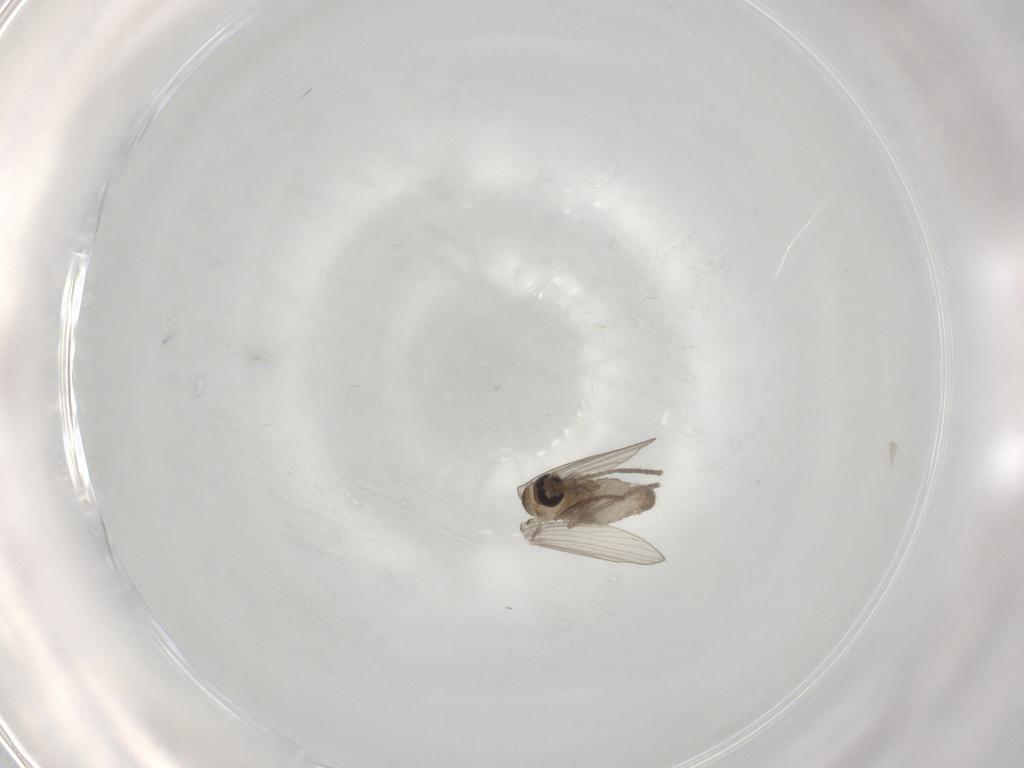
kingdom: Animalia
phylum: Arthropoda
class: Insecta
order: Diptera
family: Psychodidae
